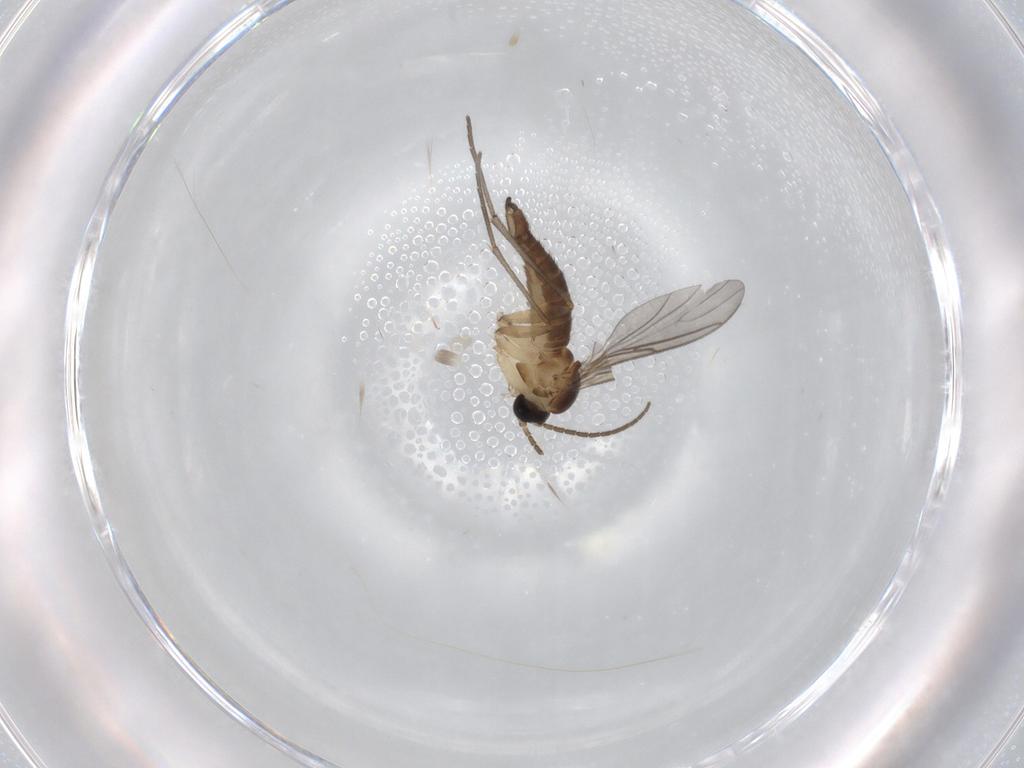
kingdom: Animalia
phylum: Arthropoda
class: Insecta
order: Diptera
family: Sciaridae
